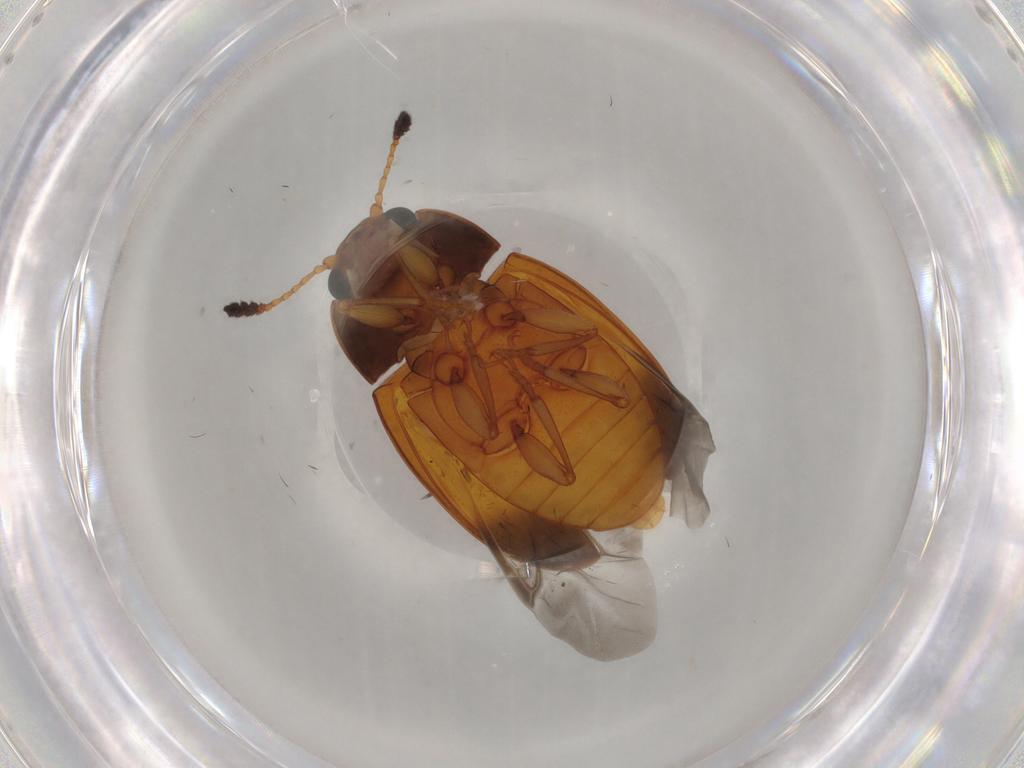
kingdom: Animalia
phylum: Arthropoda
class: Insecta
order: Coleoptera
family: Erotylidae
